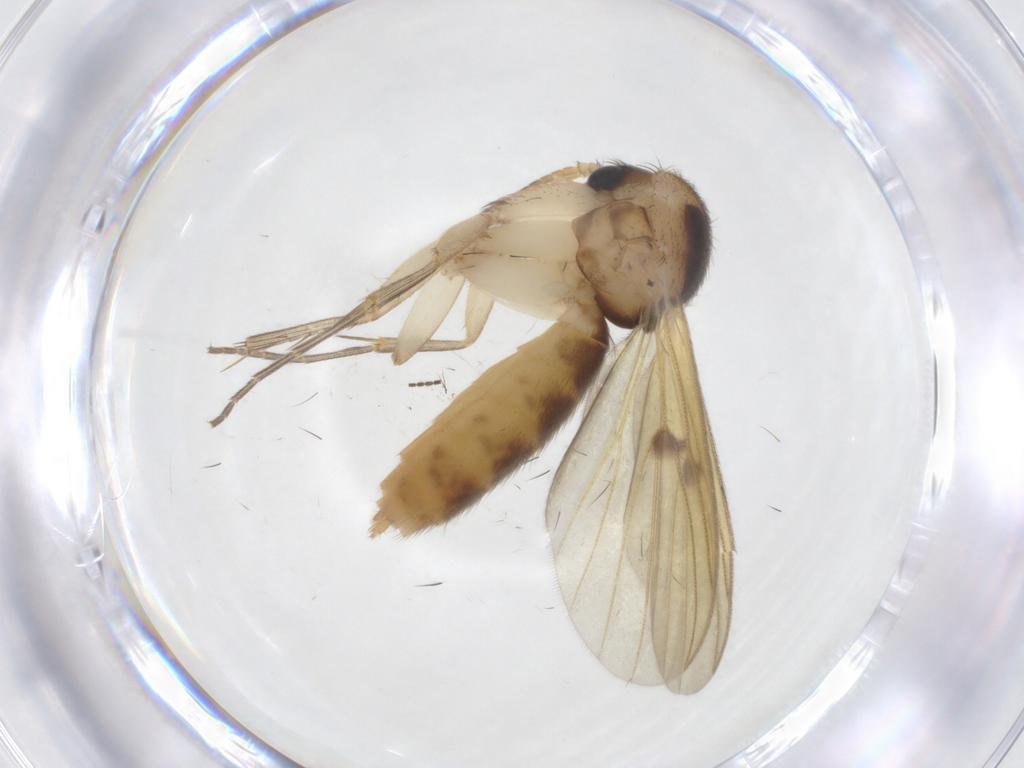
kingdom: Animalia
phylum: Arthropoda
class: Insecta
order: Diptera
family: Mycetophilidae
